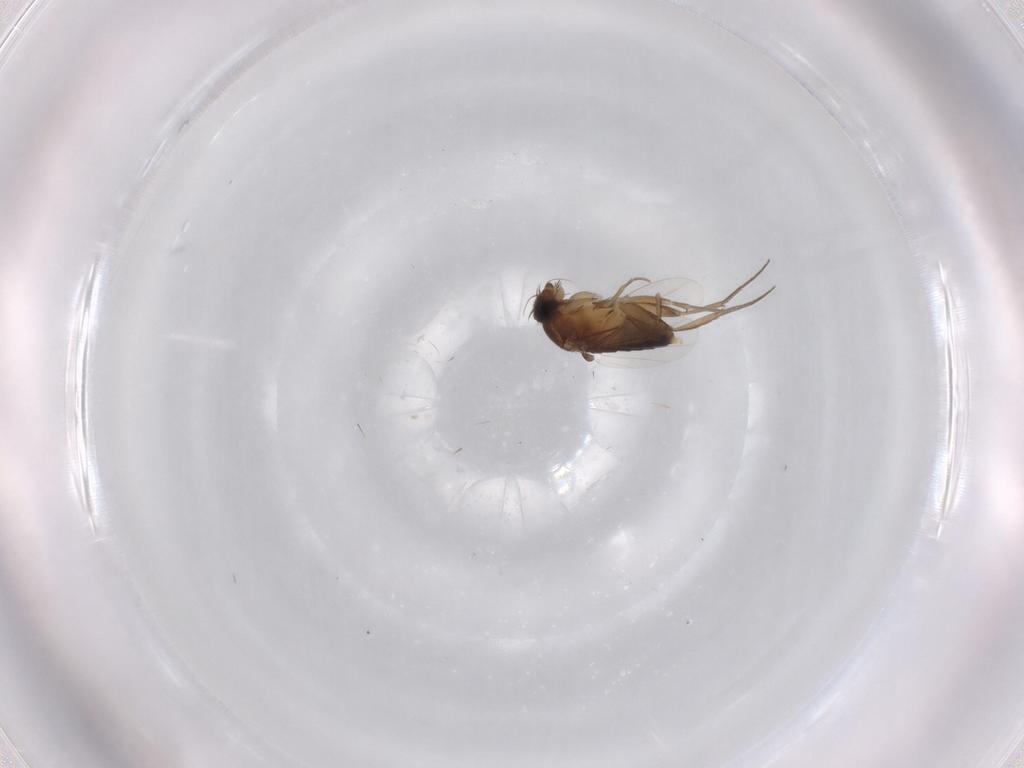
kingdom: Animalia
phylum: Arthropoda
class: Insecta
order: Diptera
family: Phoridae
